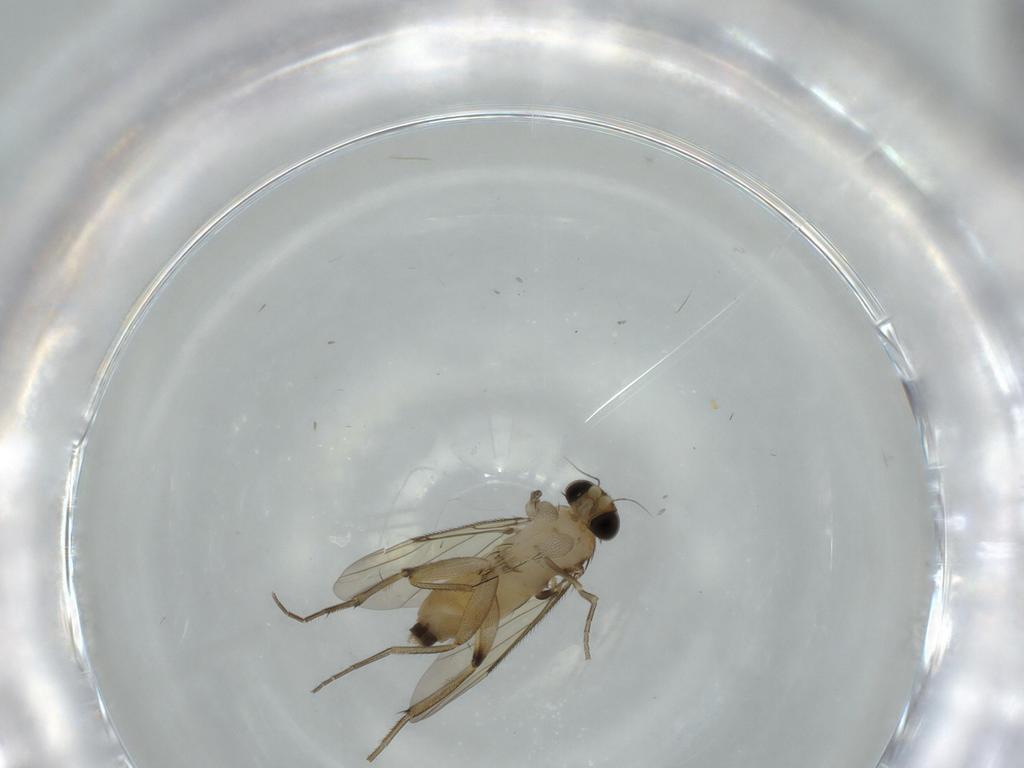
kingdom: Animalia
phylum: Arthropoda
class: Insecta
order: Diptera
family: Phoridae
